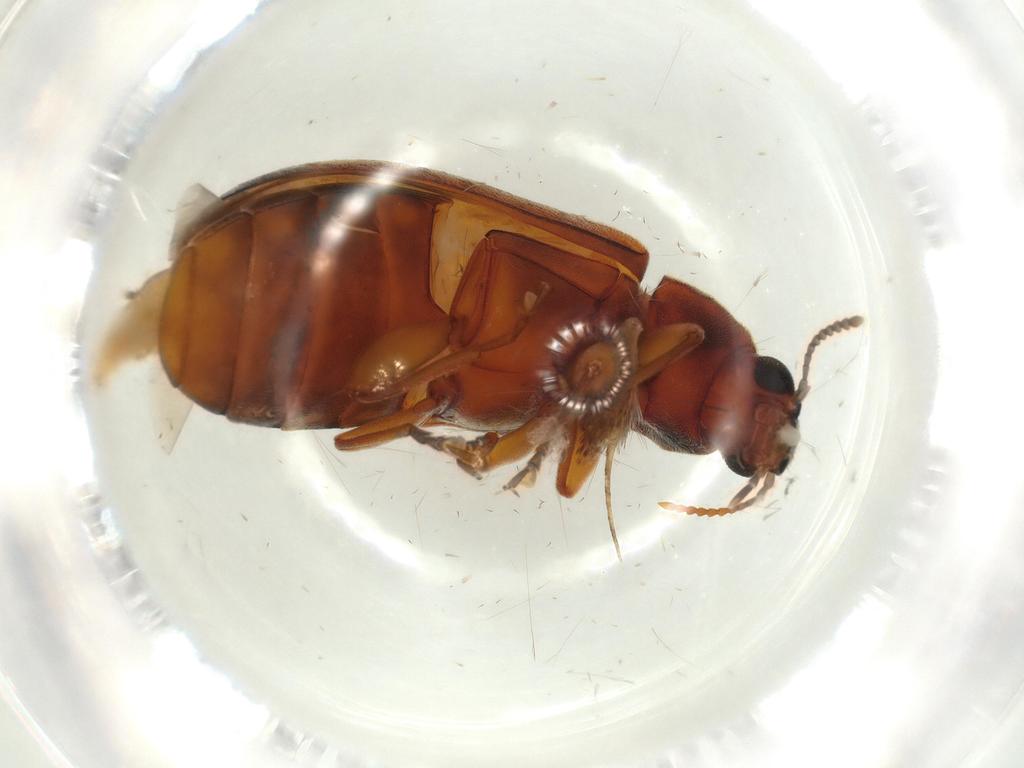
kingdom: Animalia
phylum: Arthropoda
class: Insecta
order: Coleoptera
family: Mycteridae
